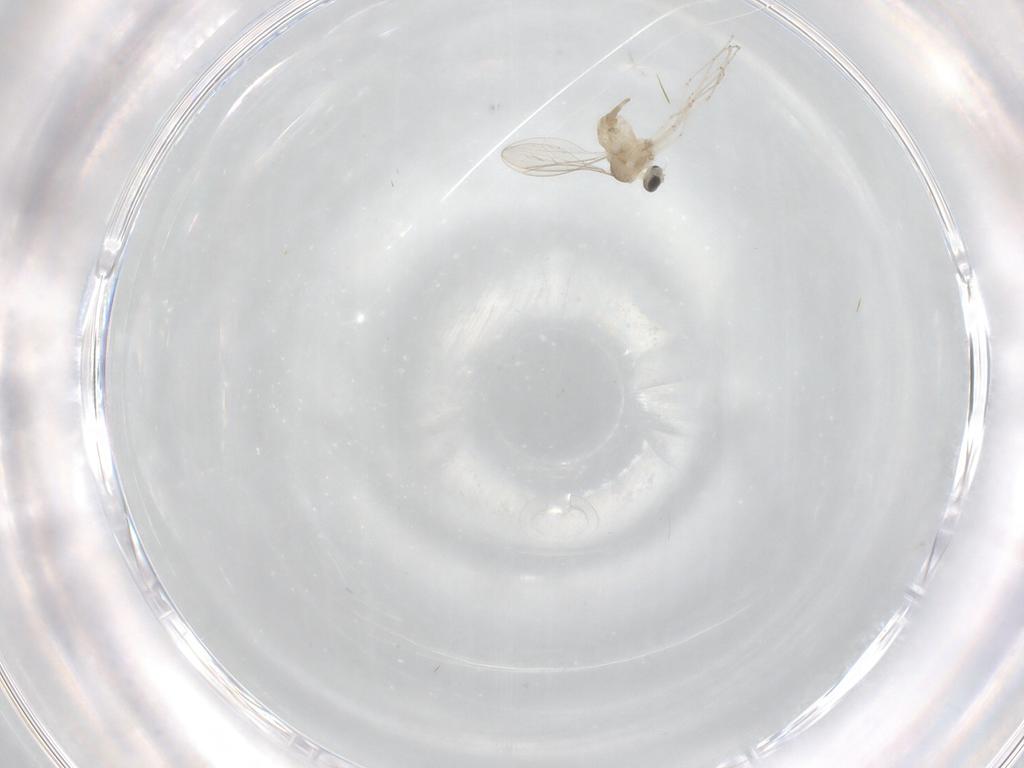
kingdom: Animalia
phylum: Arthropoda
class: Insecta
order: Diptera
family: Cecidomyiidae
